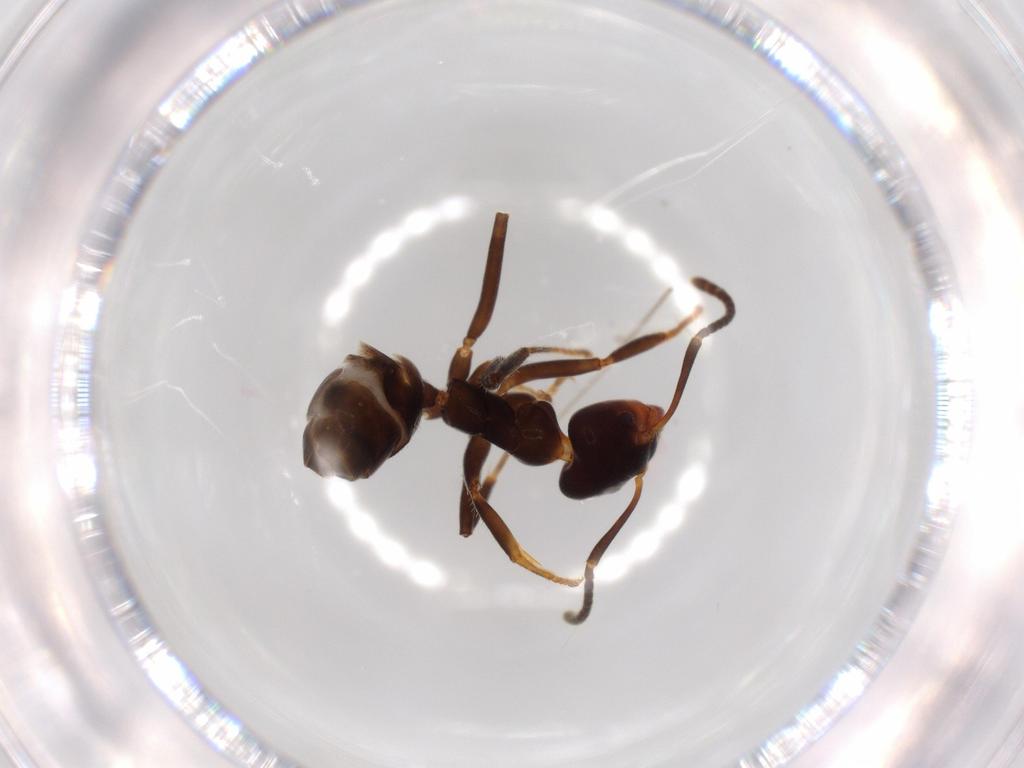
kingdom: Animalia
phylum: Arthropoda
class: Insecta
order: Hymenoptera
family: Formicidae
